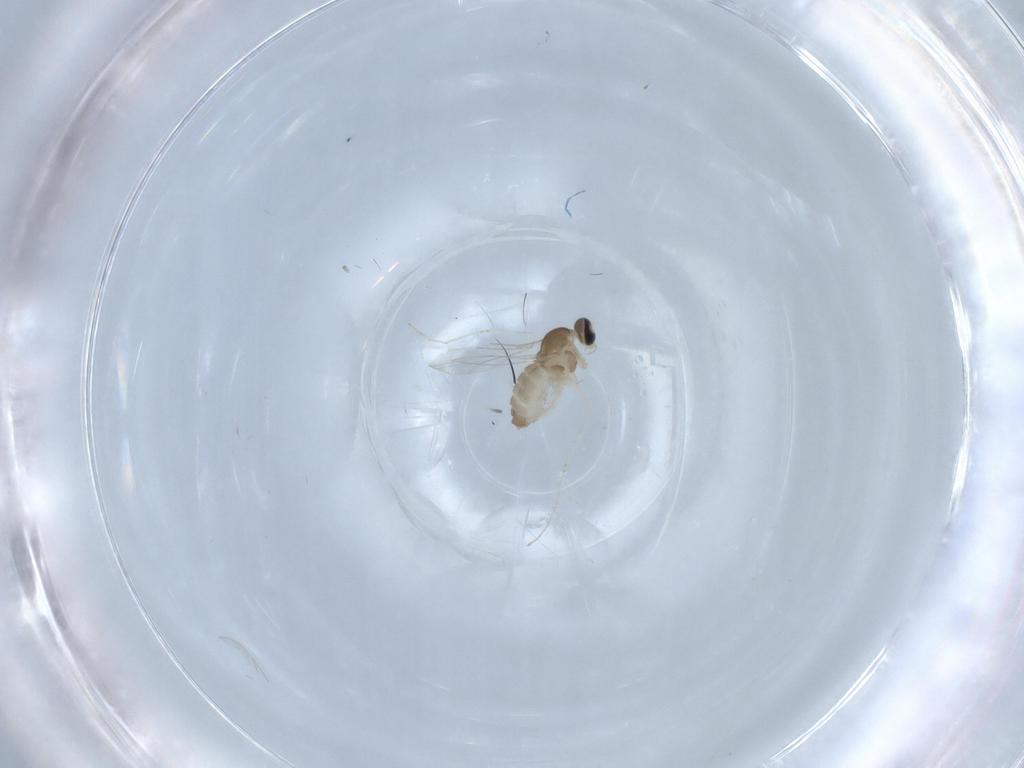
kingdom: Animalia
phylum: Arthropoda
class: Insecta
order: Diptera
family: Cecidomyiidae
